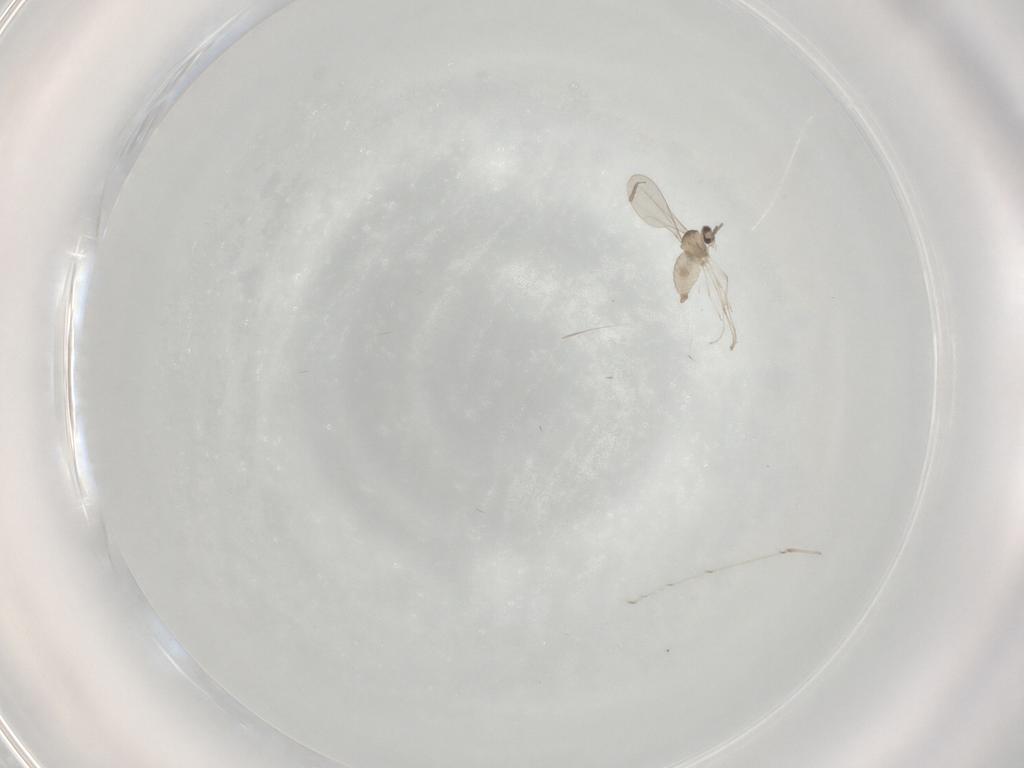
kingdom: Animalia
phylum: Arthropoda
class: Insecta
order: Diptera
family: Cecidomyiidae
